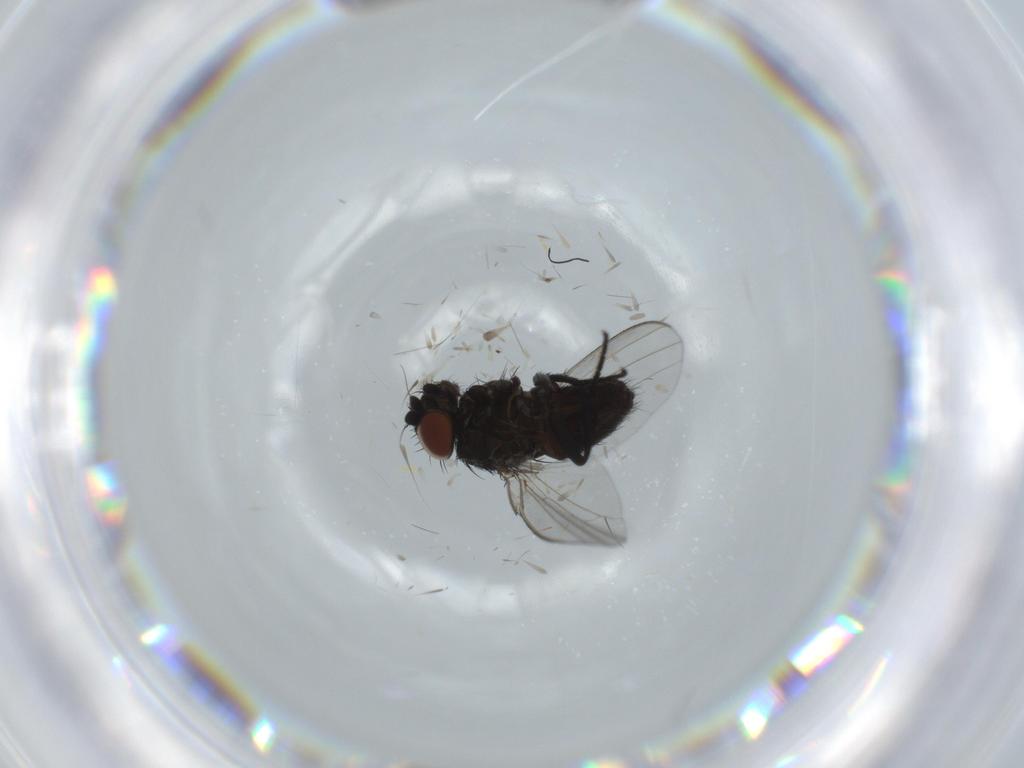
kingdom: Animalia
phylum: Arthropoda
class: Insecta
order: Diptera
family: Milichiidae
